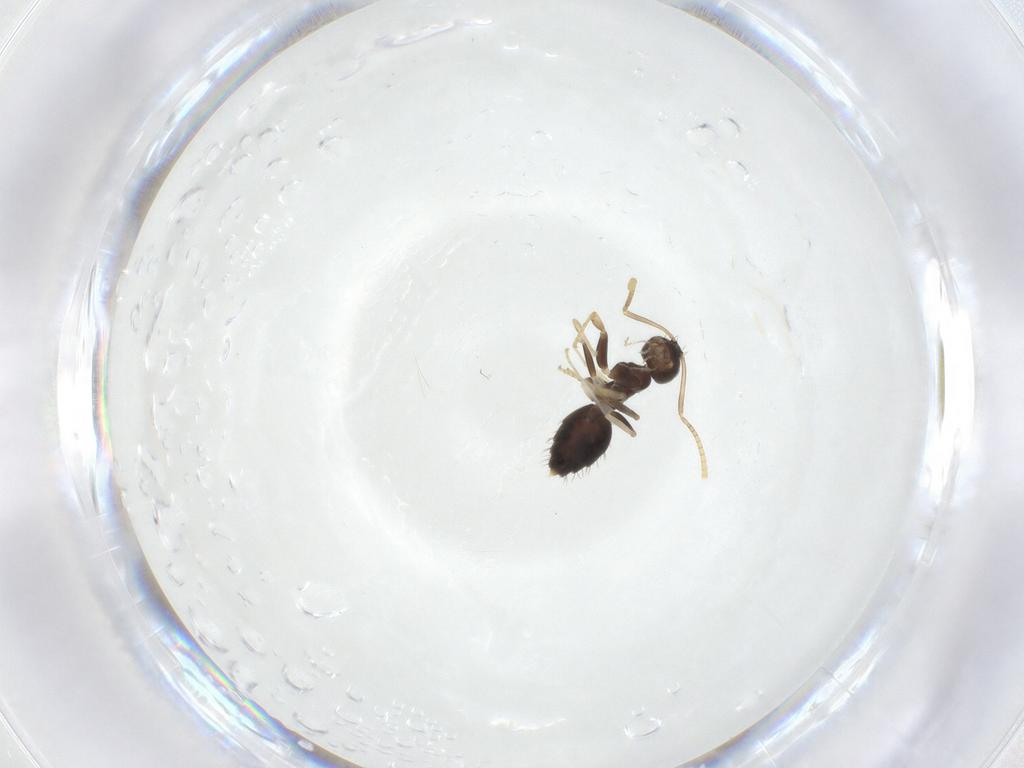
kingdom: Animalia
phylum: Arthropoda
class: Insecta
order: Hymenoptera
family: Formicidae
